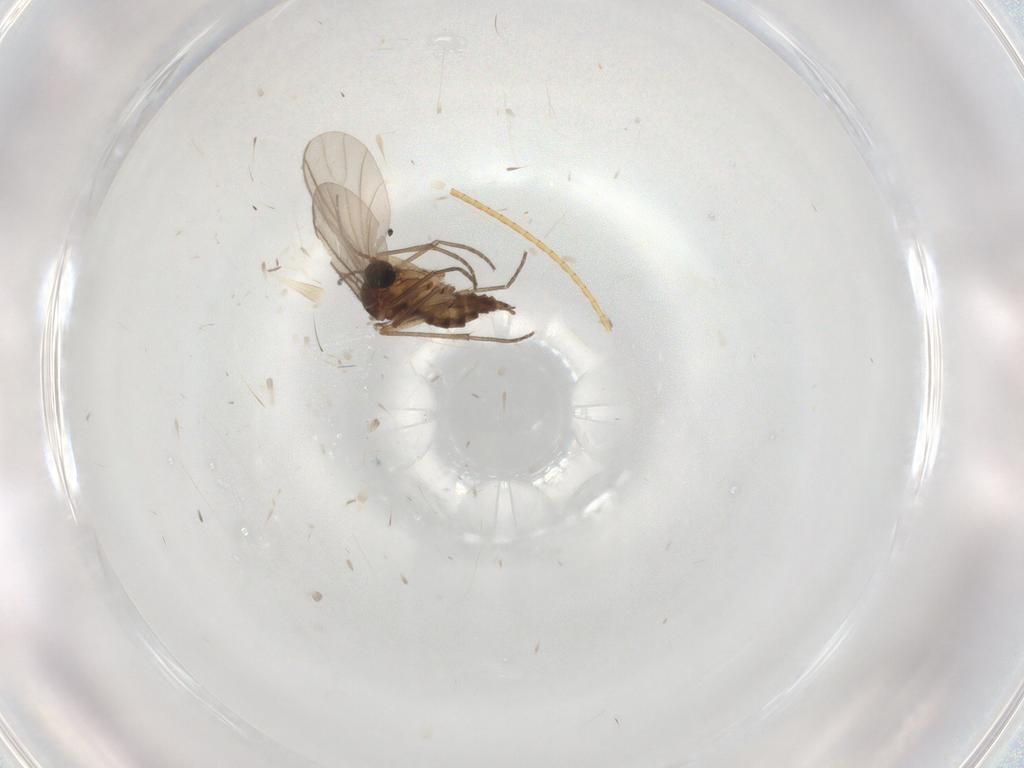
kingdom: Animalia
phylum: Arthropoda
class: Insecta
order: Diptera
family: Sciaridae
